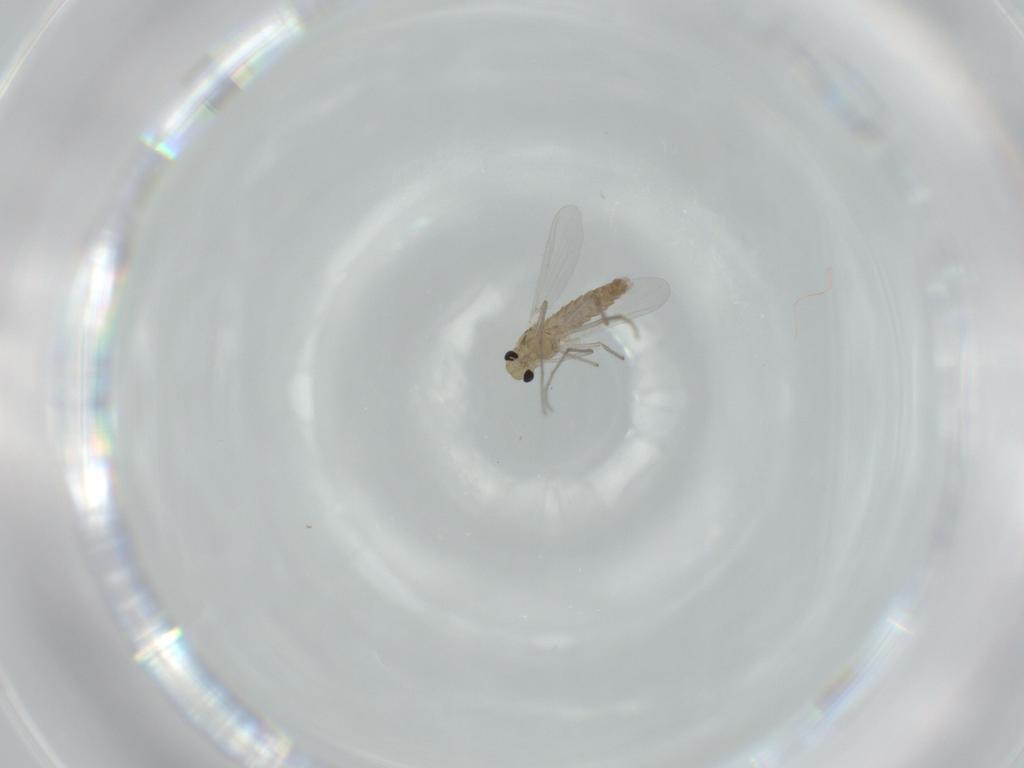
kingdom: Animalia
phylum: Arthropoda
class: Insecta
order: Diptera
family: Chironomidae
